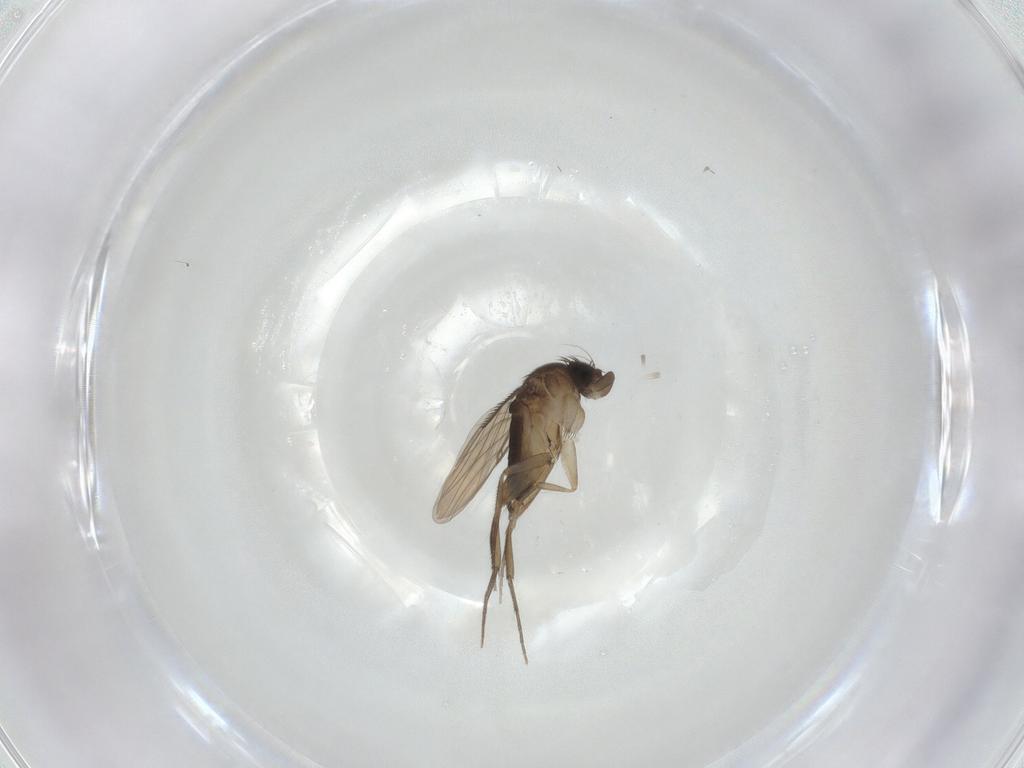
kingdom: Animalia
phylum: Arthropoda
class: Insecta
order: Diptera
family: Phoridae
